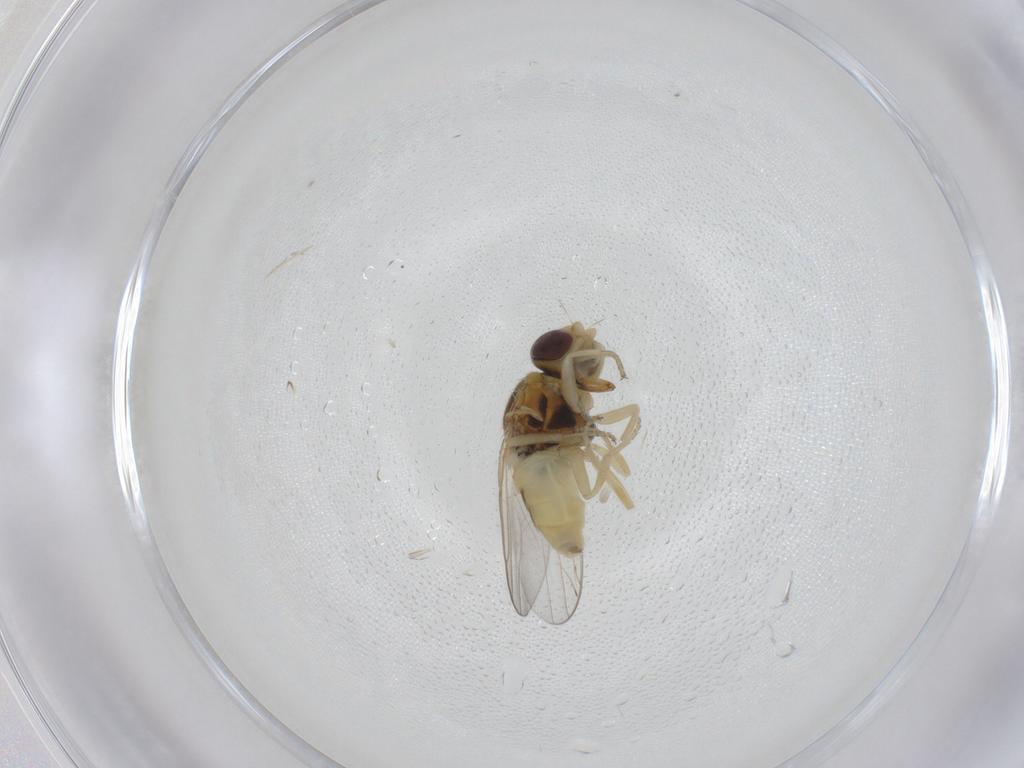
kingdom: Animalia
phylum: Arthropoda
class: Insecta
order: Diptera
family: Chloropidae
